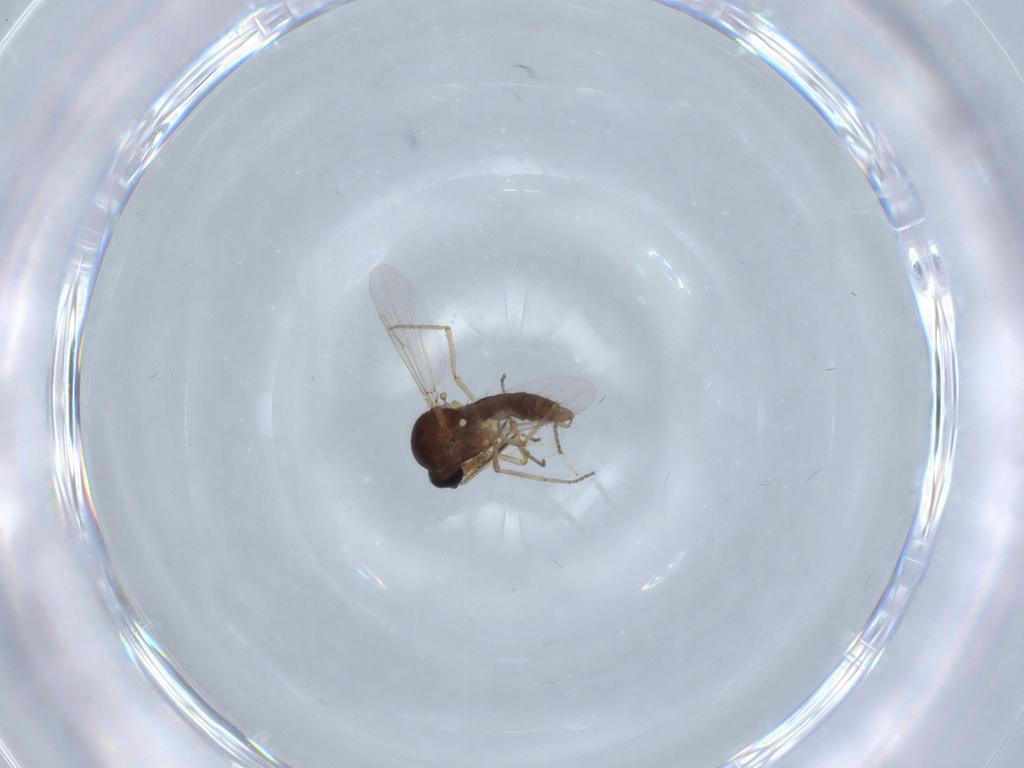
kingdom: Animalia
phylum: Arthropoda
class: Insecta
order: Diptera
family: Ceratopogonidae
